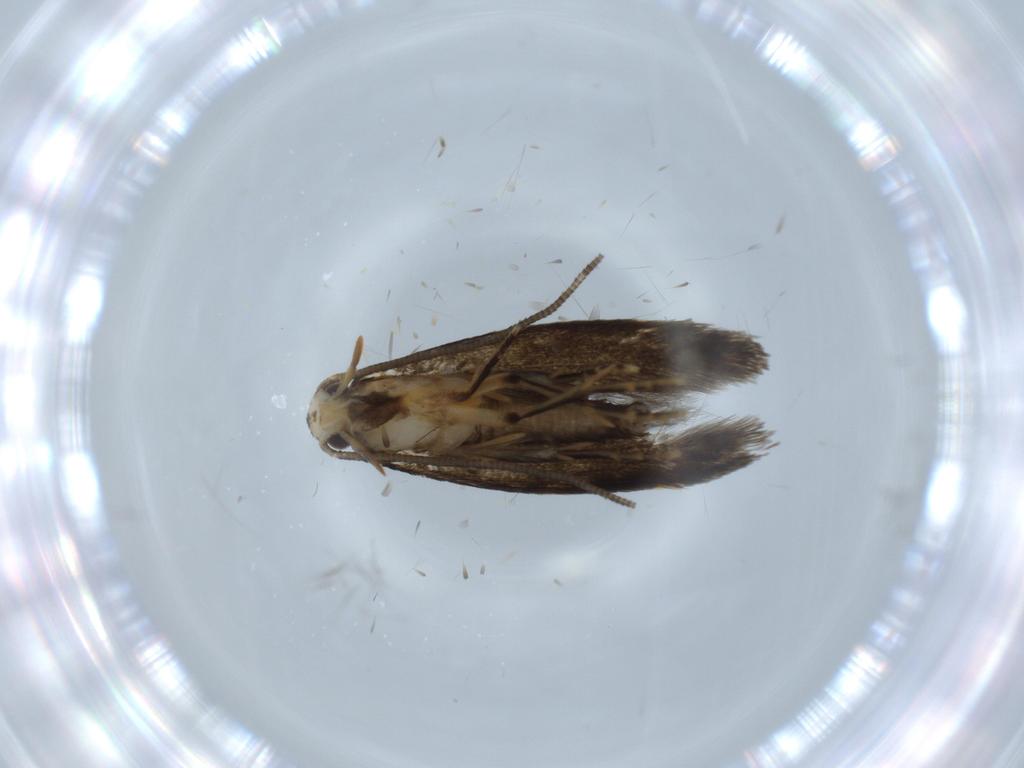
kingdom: Animalia
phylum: Arthropoda
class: Insecta
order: Lepidoptera
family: Tineidae
